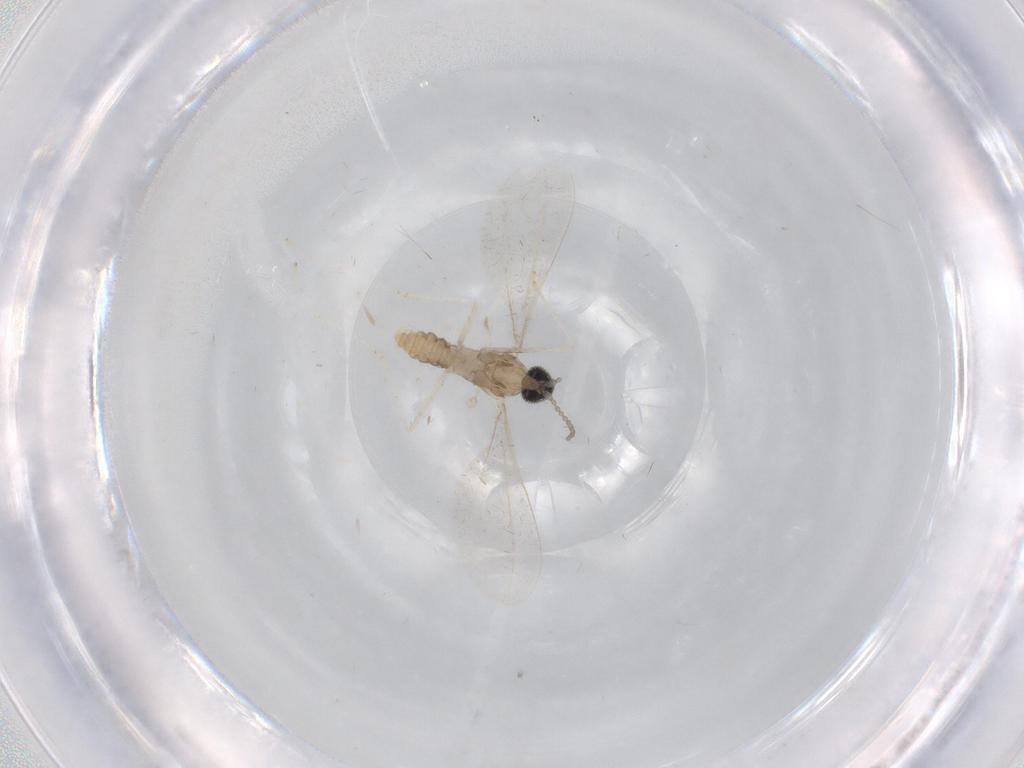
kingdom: Animalia
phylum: Arthropoda
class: Insecta
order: Diptera
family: Cecidomyiidae
